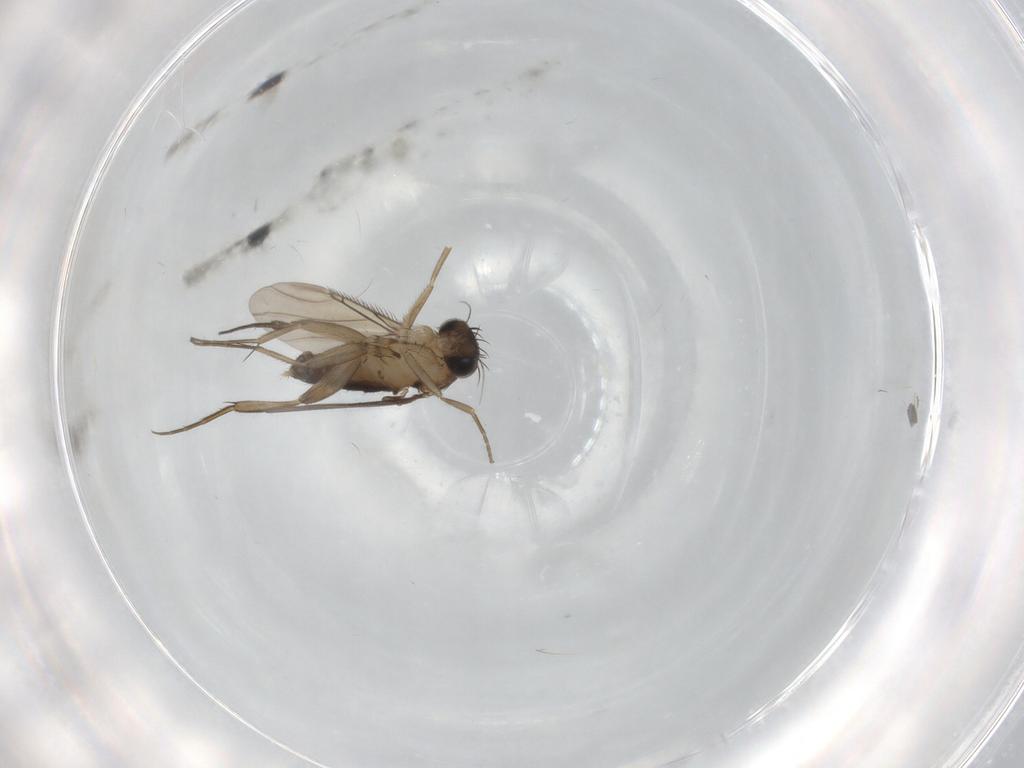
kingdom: Animalia
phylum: Arthropoda
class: Insecta
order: Diptera
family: Phoridae
